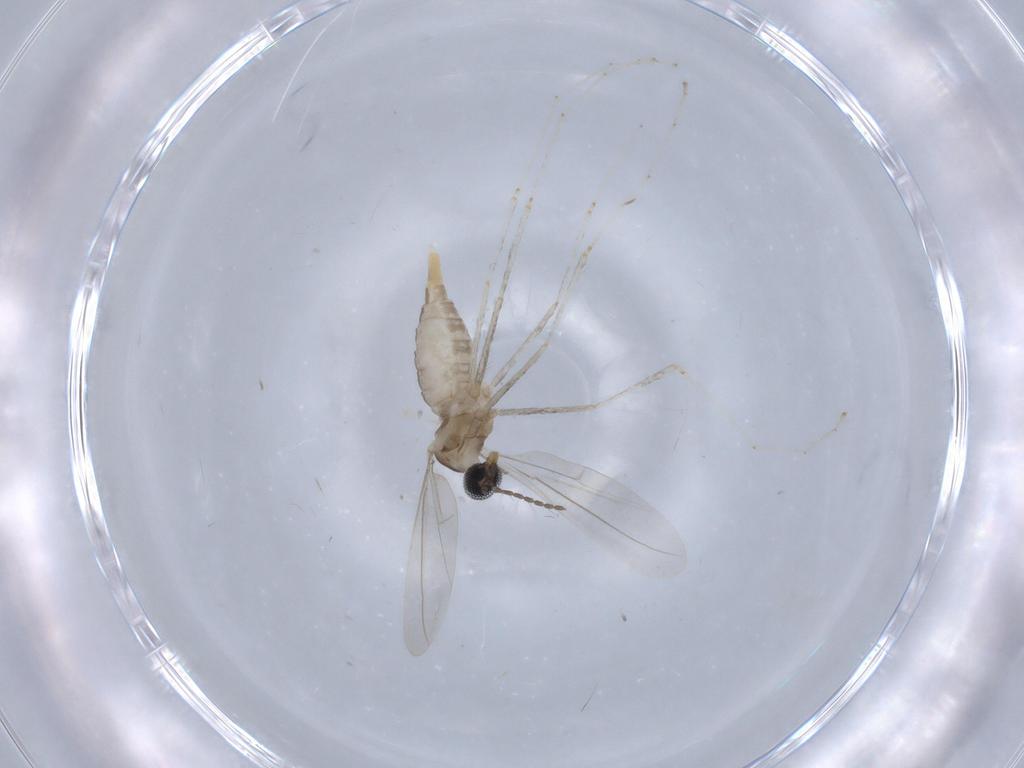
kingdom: Animalia
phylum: Arthropoda
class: Insecta
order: Diptera
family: Cecidomyiidae
